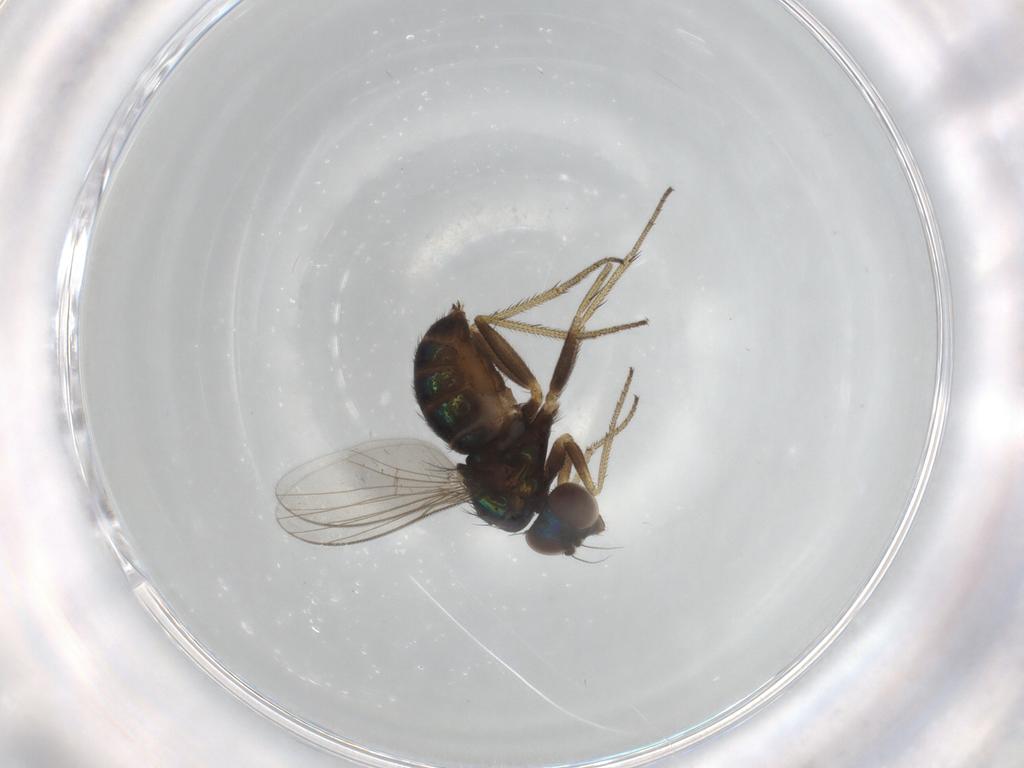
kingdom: Animalia
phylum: Arthropoda
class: Insecta
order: Diptera
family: Dolichopodidae
